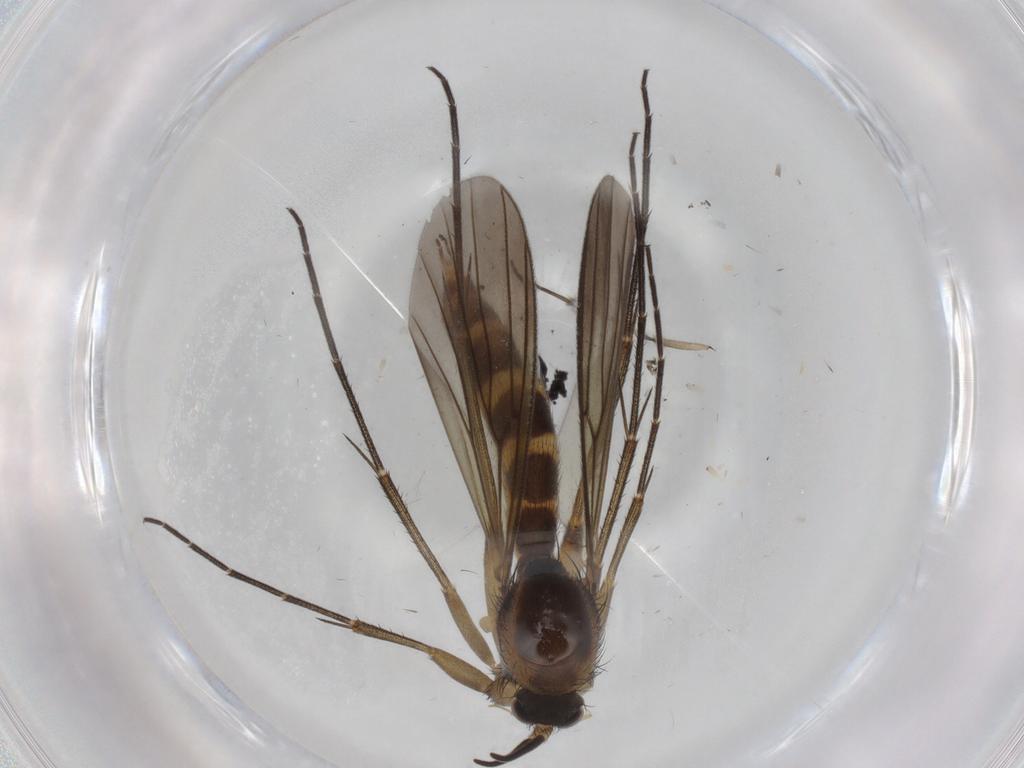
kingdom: Animalia
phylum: Arthropoda
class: Insecta
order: Diptera
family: Mycetophilidae
